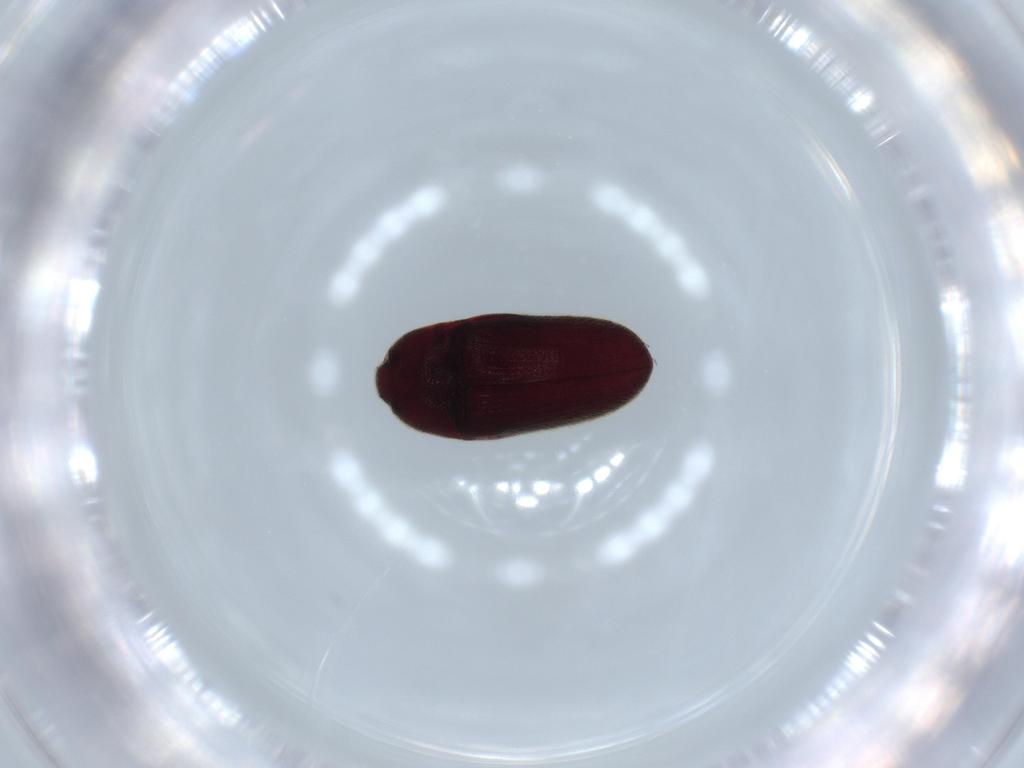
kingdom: Animalia
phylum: Arthropoda
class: Insecta
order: Coleoptera
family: Throscidae
